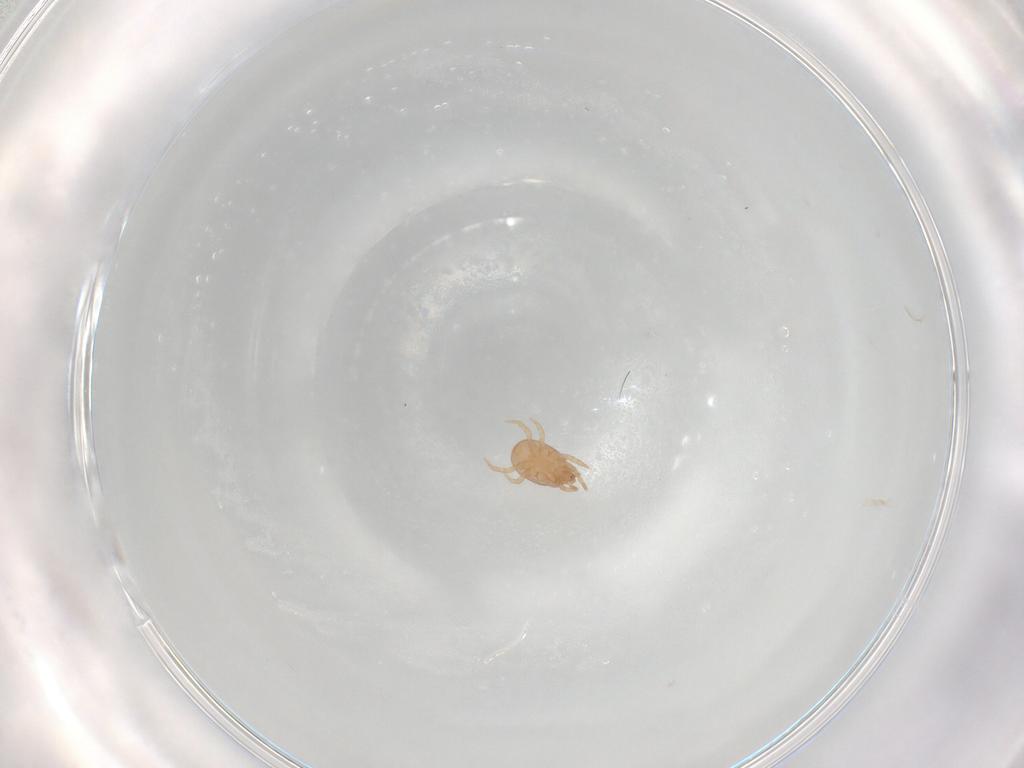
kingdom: Animalia
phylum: Arthropoda
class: Arachnida
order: Mesostigmata
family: Eviphididae
